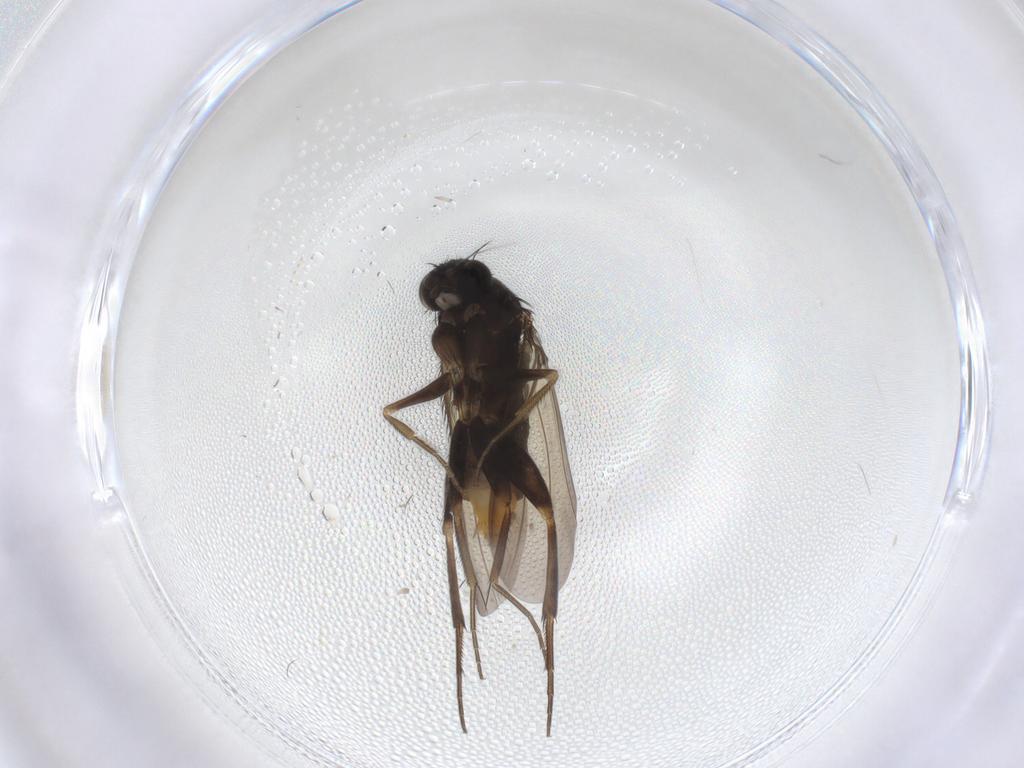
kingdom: Animalia
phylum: Arthropoda
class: Insecta
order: Diptera
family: Phoridae
